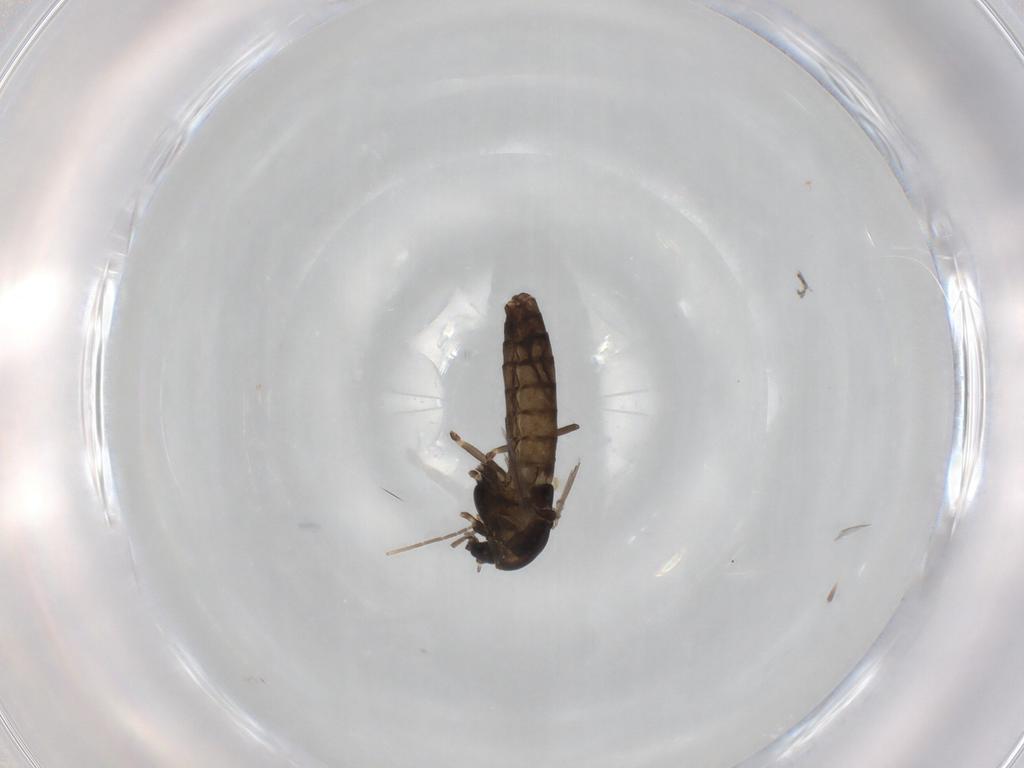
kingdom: Animalia
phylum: Arthropoda
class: Insecta
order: Diptera
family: Chironomidae
